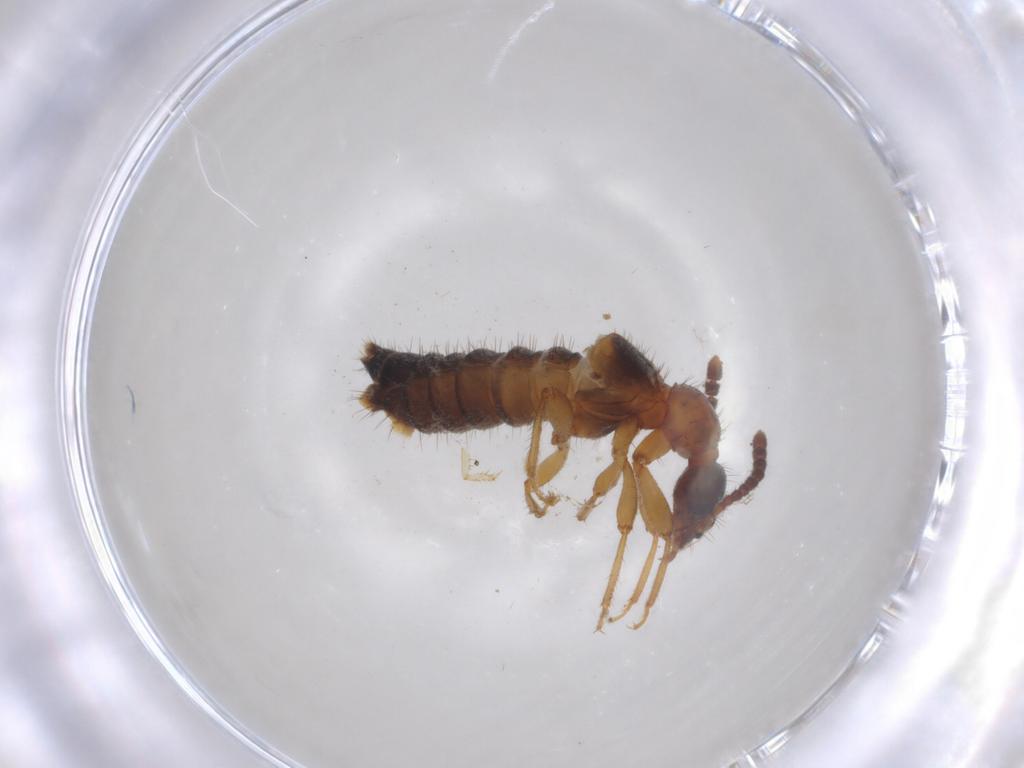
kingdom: Animalia
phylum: Arthropoda
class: Insecta
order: Coleoptera
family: Staphylinidae
